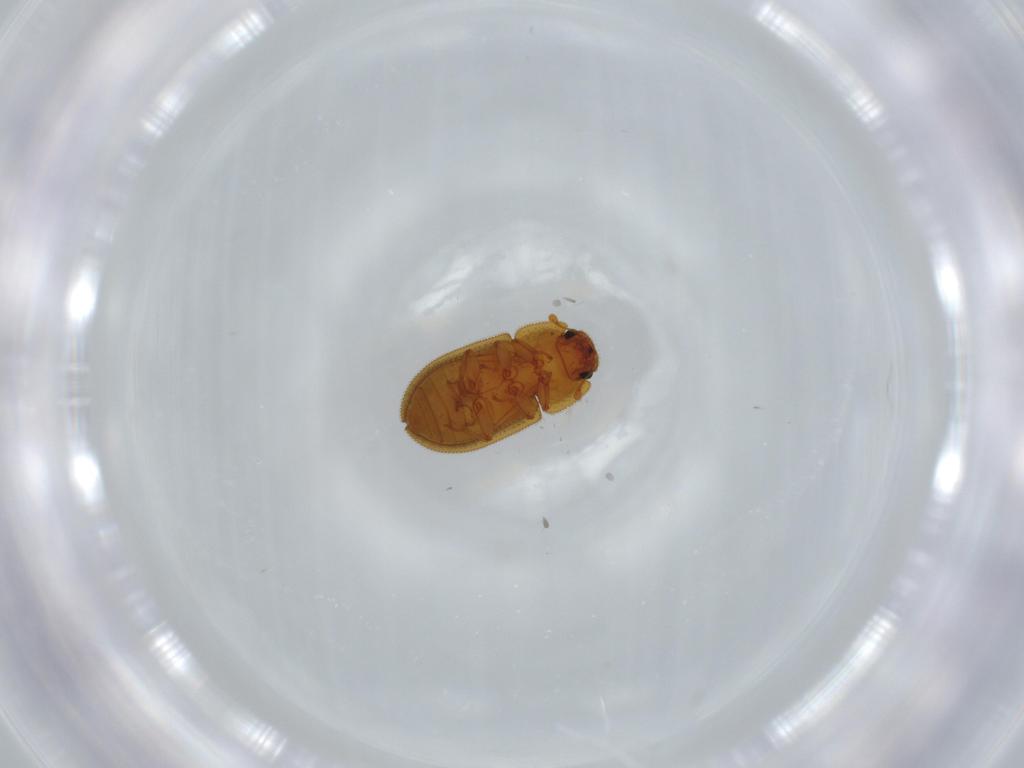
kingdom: Animalia
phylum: Arthropoda
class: Insecta
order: Coleoptera
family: Zopheridae
